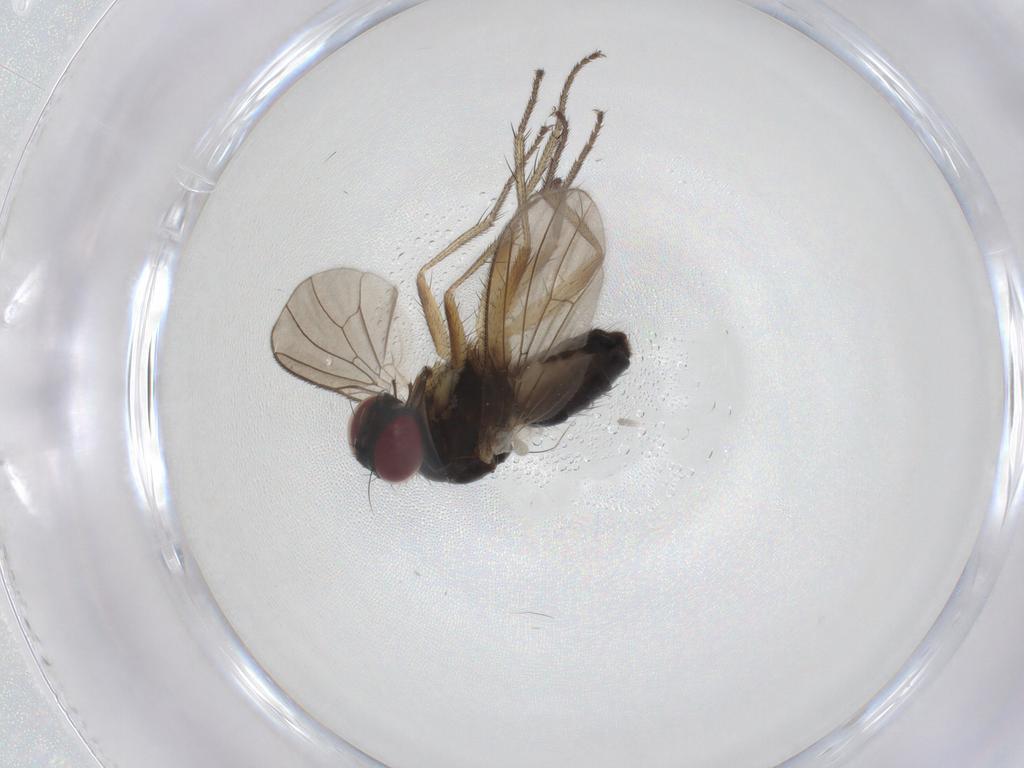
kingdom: Animalia
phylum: Arthropoda
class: Insecta
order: Diptera
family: Muscidae
